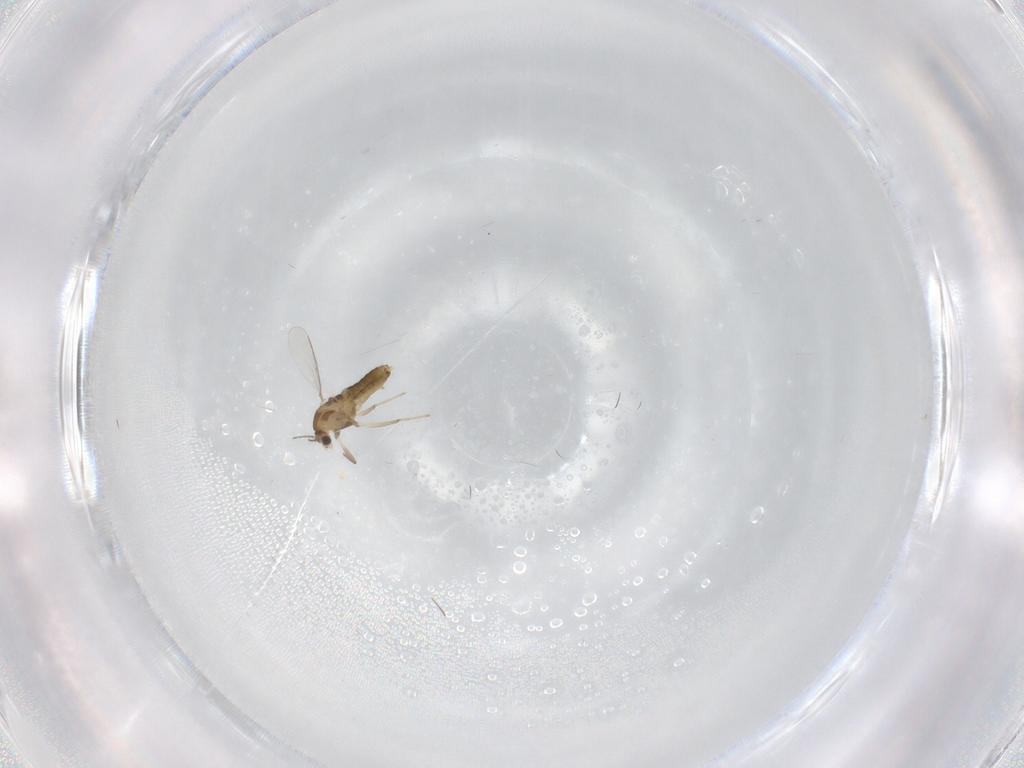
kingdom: Animalia
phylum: Arthropoda
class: Insecta
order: Diptera
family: Chironomidae
